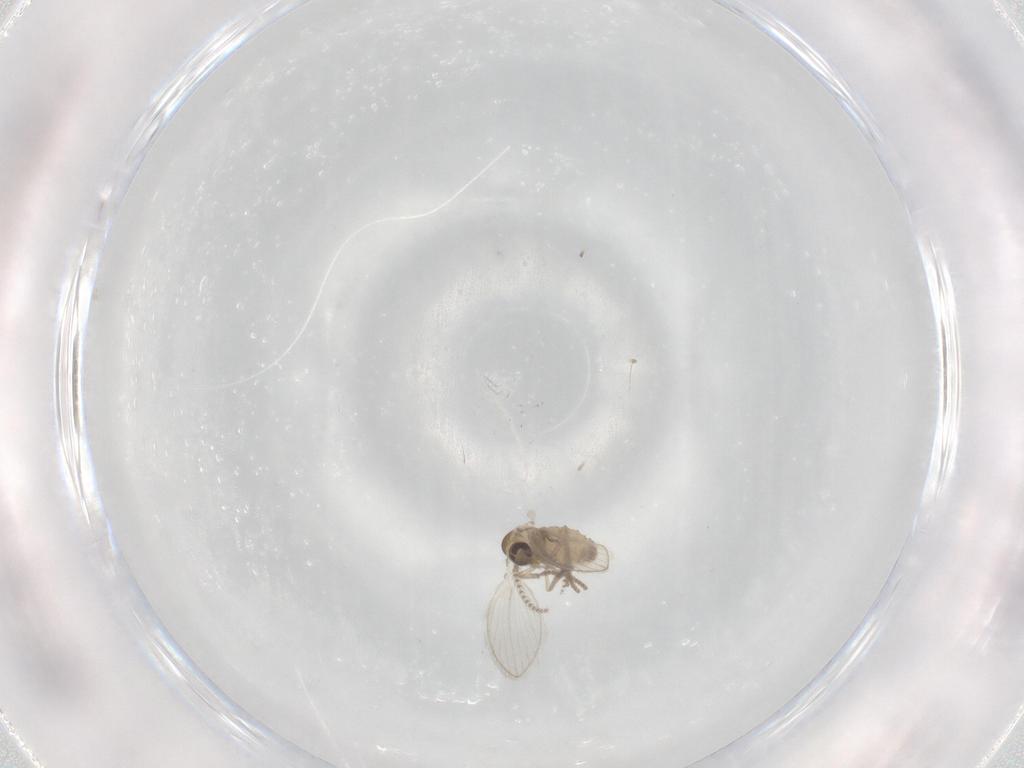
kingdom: Animalia
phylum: Arthropoda
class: Insecta
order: Diptera
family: Psychodidae
